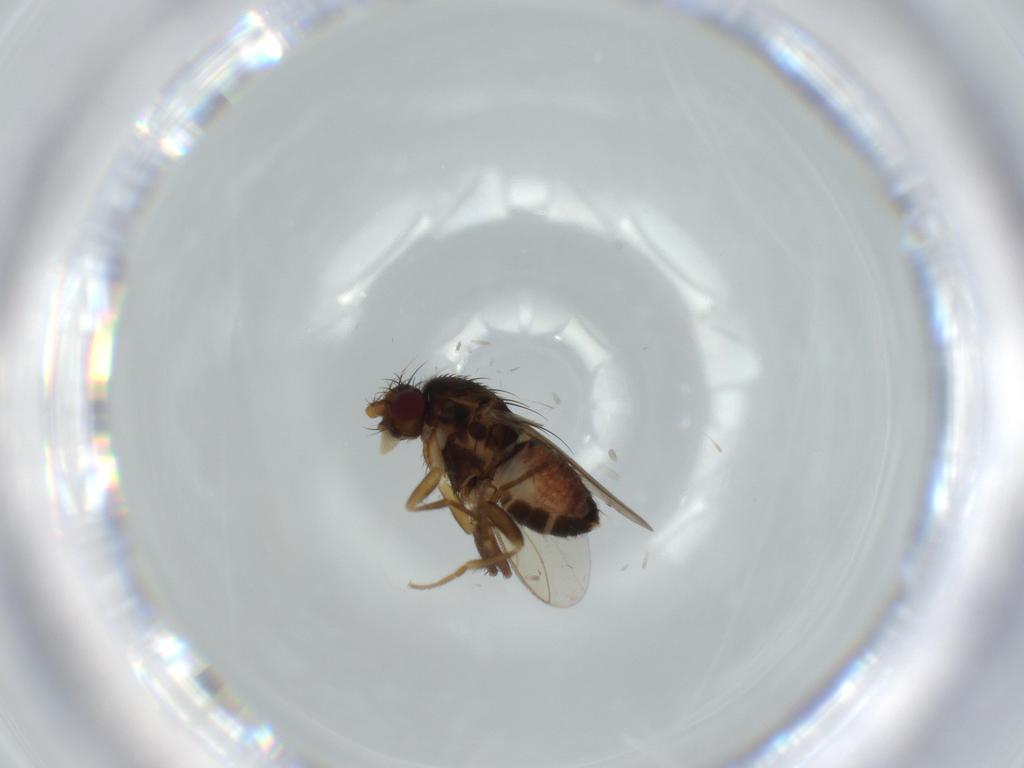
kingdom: Animalia
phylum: Arthropoda
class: Insecta
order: Diptera
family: Sphaeroceridae
